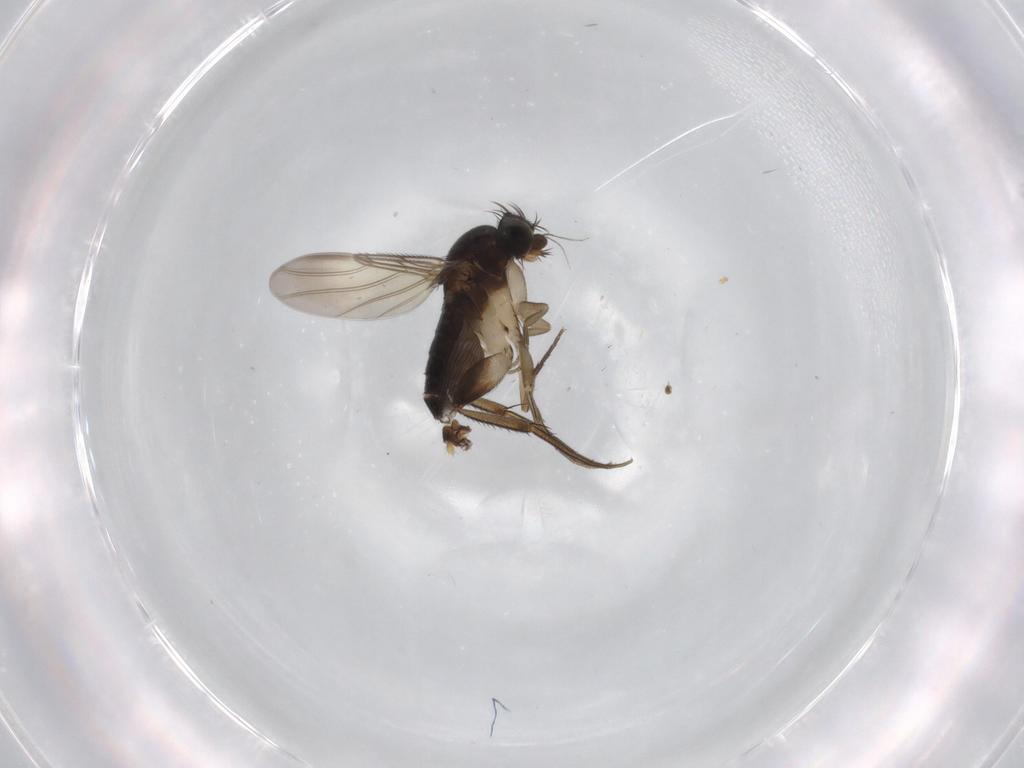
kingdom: Animalia
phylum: Arthropoda
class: Insecta
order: Diptera
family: Phoridae
